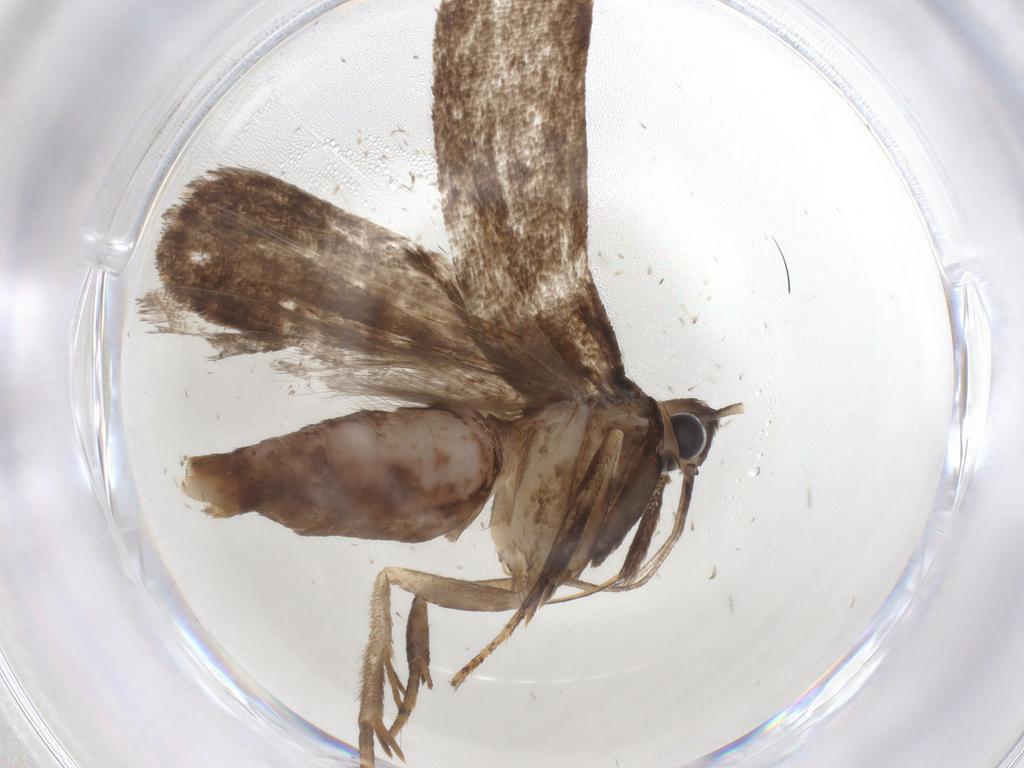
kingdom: Animalia
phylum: Arthropoda
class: Insecta
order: Lepidoptera
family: Gelechiidae
